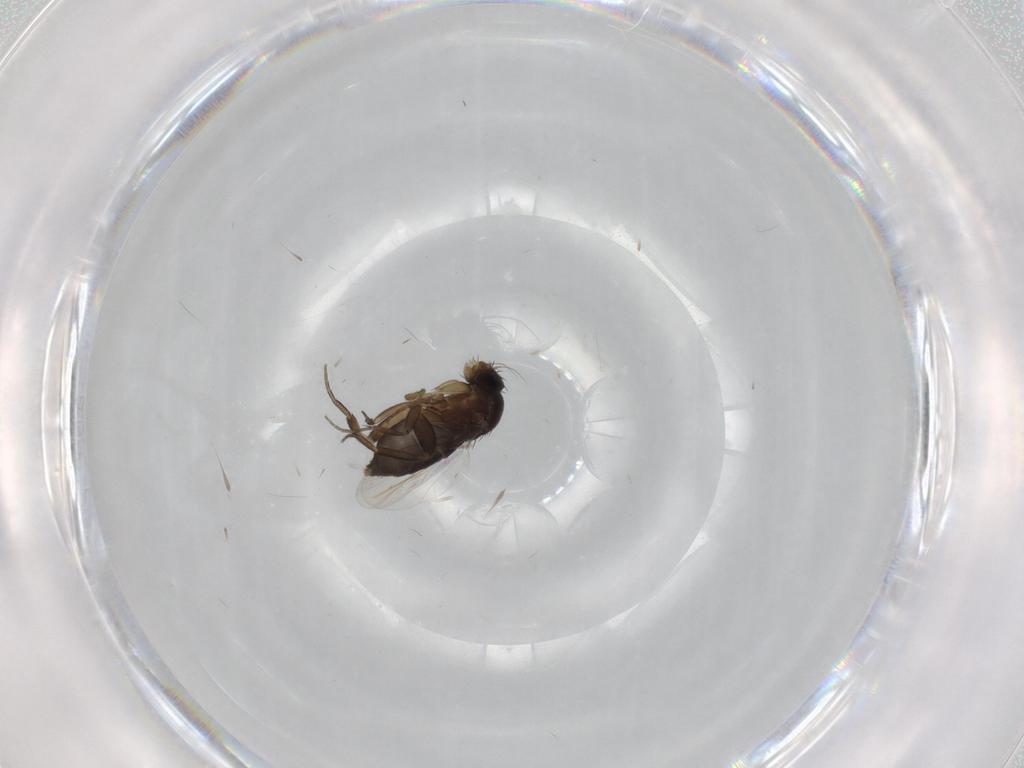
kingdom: Animalia
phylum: Arthropoda
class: Insecta
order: Diptera
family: Phoridae
